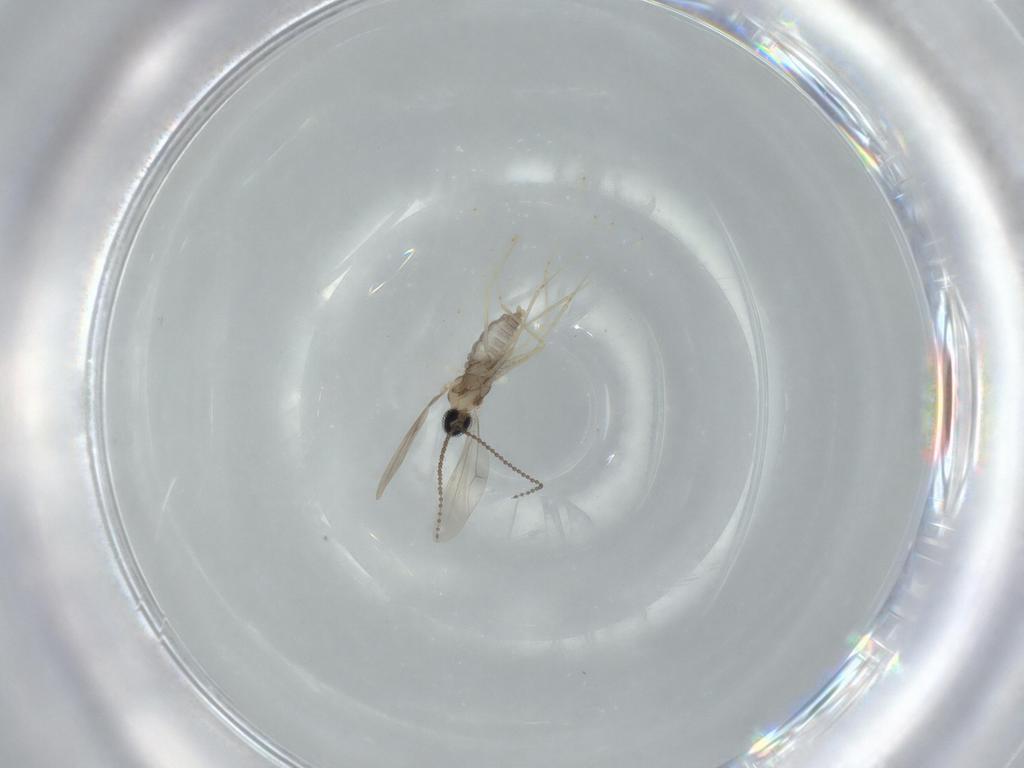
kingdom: Animalia
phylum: Arthropoda
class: Insecta
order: Diptera
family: Cecidomyiidae
